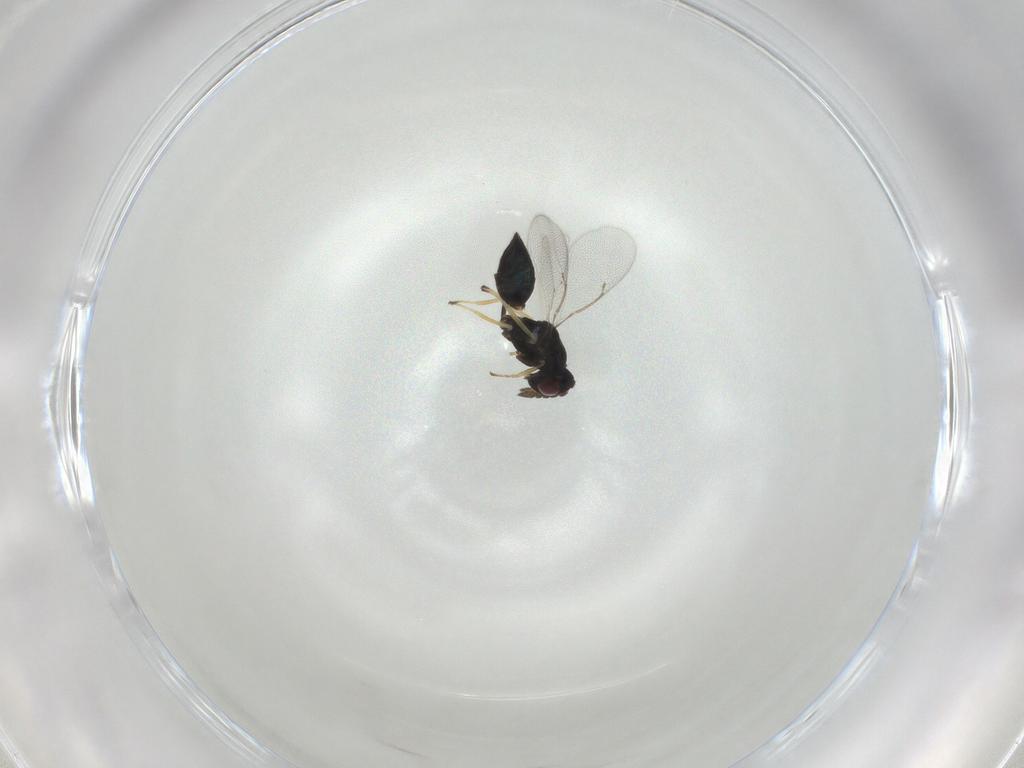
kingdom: Animalia
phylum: Arthropoda
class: Insecta
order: Hymenoptera
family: Eulophidae
